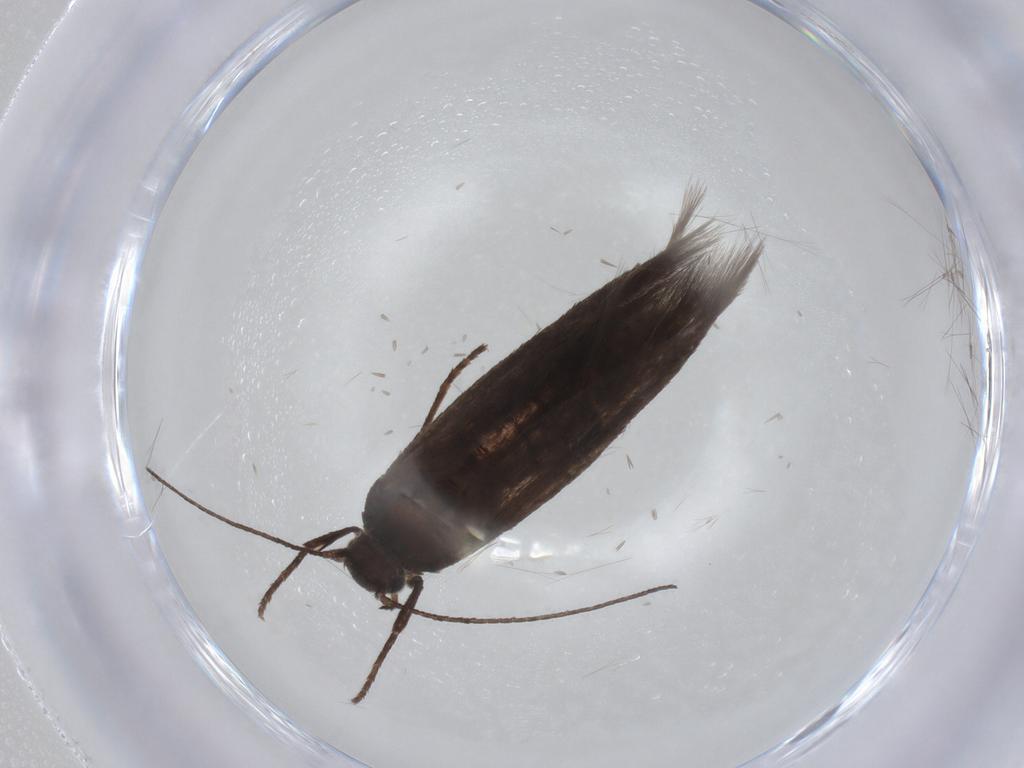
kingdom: Animalia
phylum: Arthropoda
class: Insecta
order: Lepidoptera
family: Scythrididae
